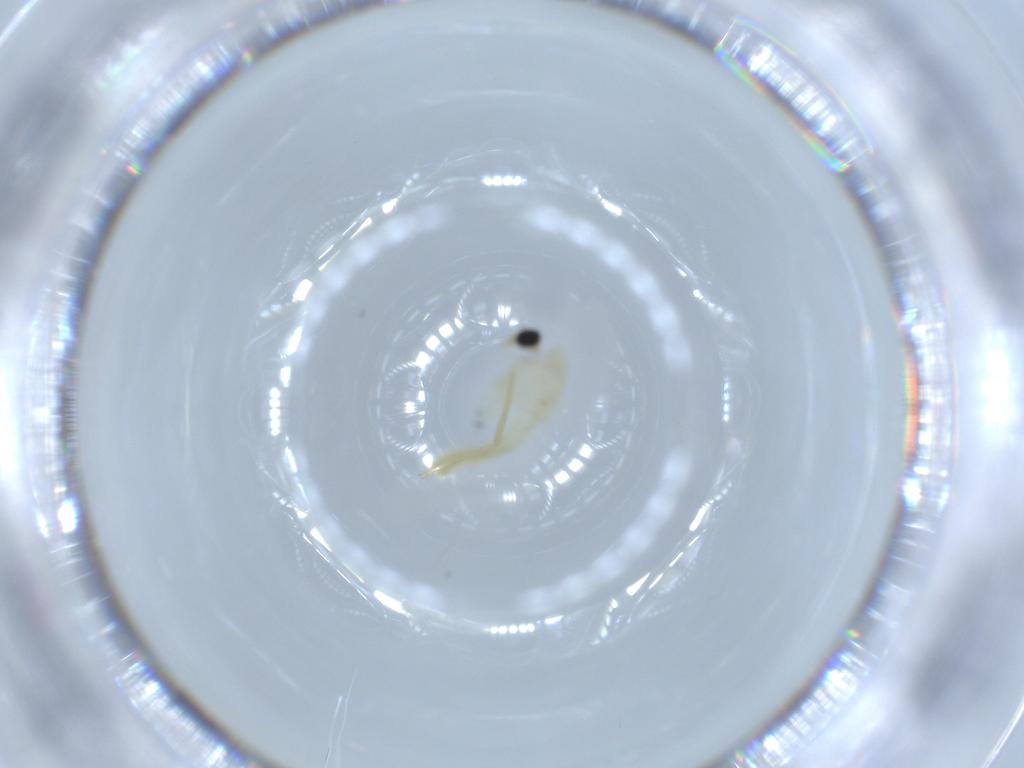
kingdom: Animalia
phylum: Arthropoda
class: Insecta
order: Diptera
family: Chironomidae
